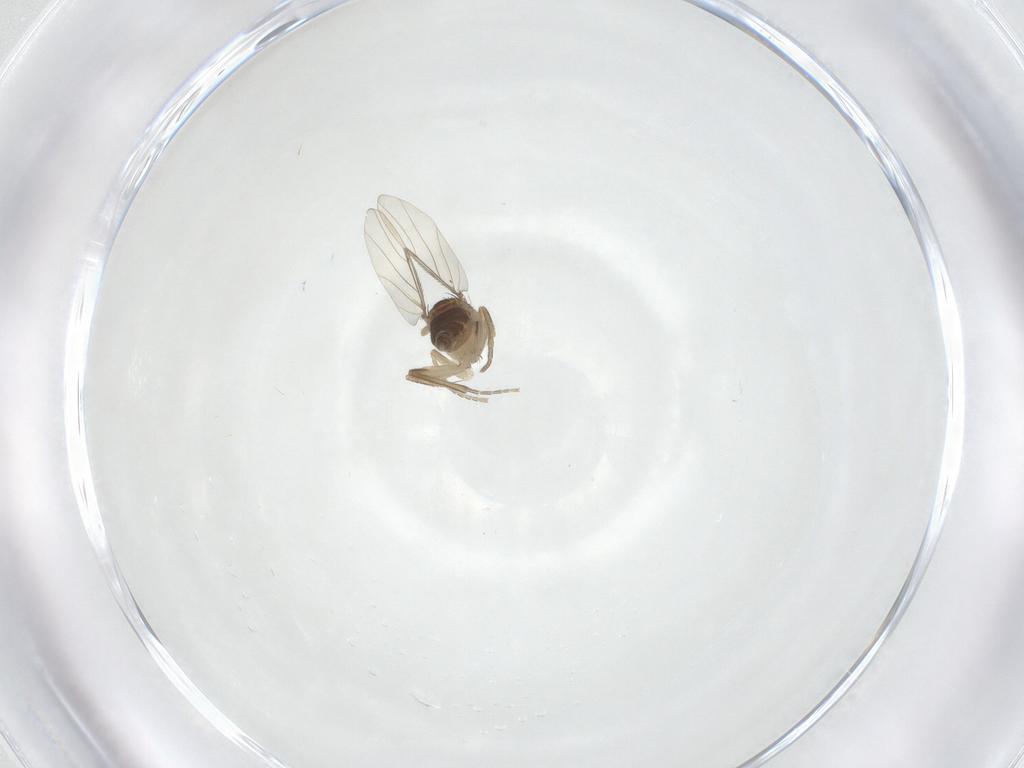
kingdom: Animalia
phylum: Arthropoda
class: Insecta
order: Diptera
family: Phoridae
